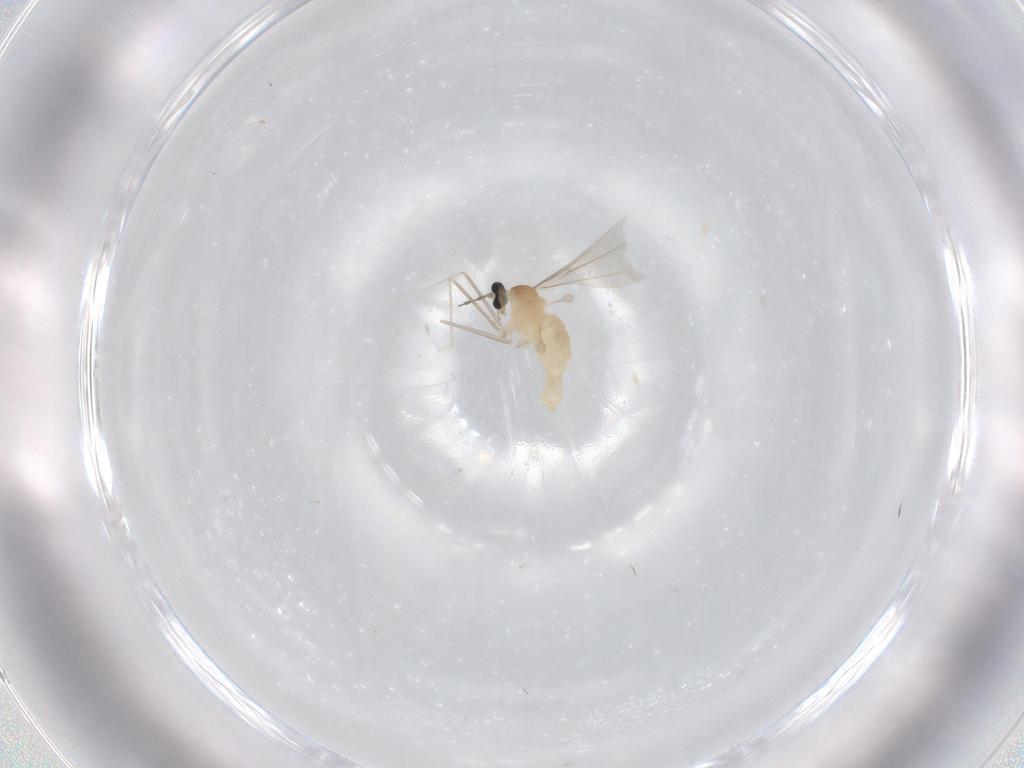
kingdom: Animalia
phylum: Arthropoda
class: Insecta
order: Diptera
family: Cecidomyiidae
